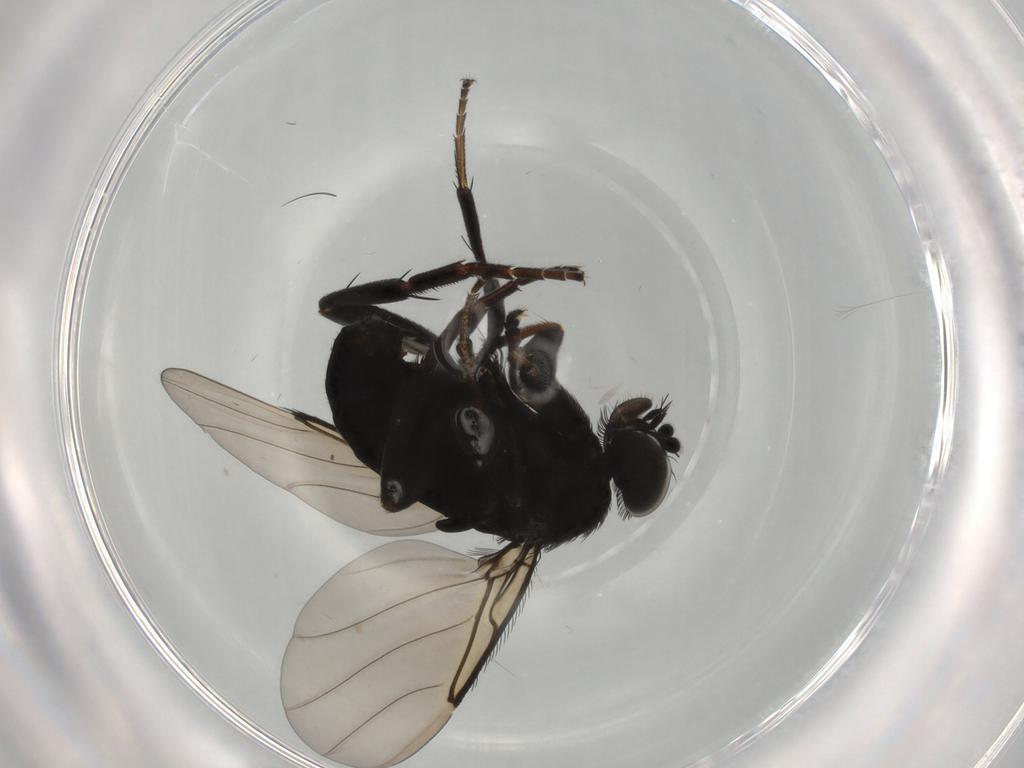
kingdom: Animalia
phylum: Arthropoda
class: Insecta
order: Diptera
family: Phoridae
